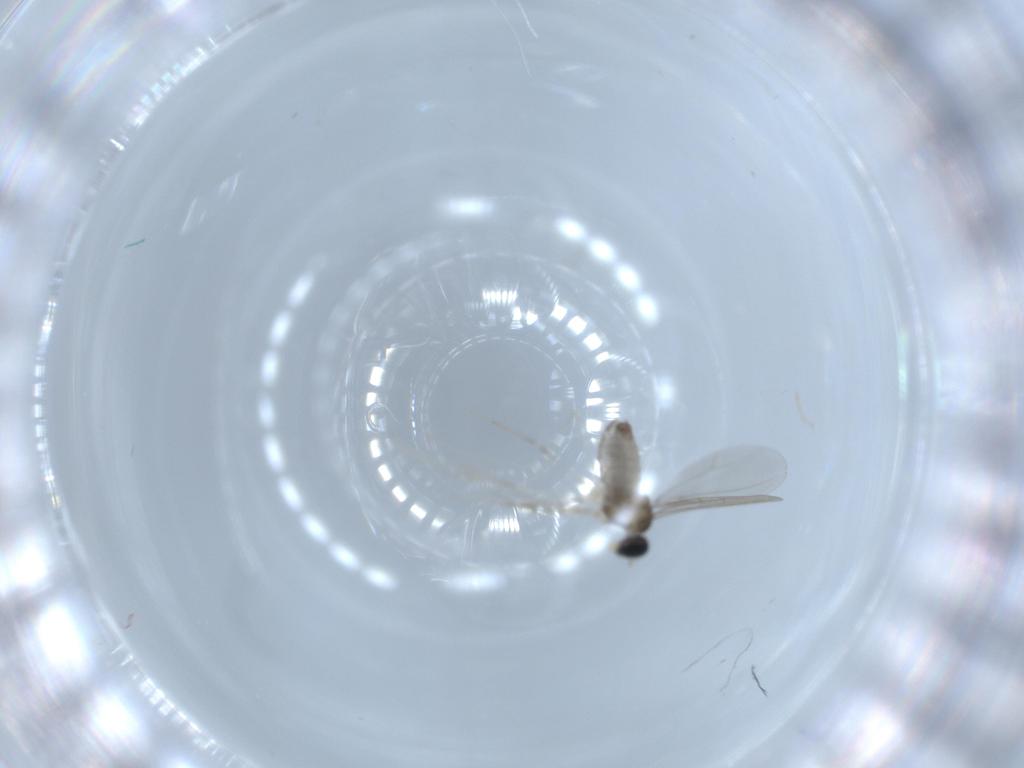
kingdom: Animalia
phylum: Arthropoda
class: Insecta
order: Diptera
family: Cecidomyiidae
